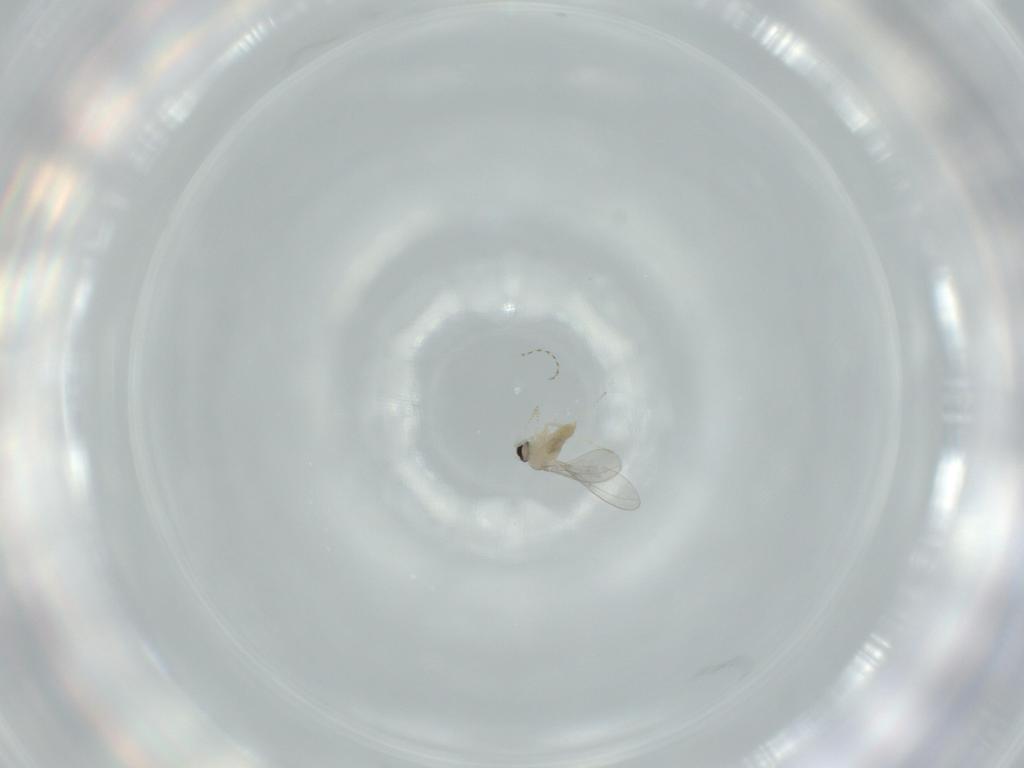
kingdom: Animalia
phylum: Arthropoda
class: Insecta
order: Diptera
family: Cecidomyiidae
